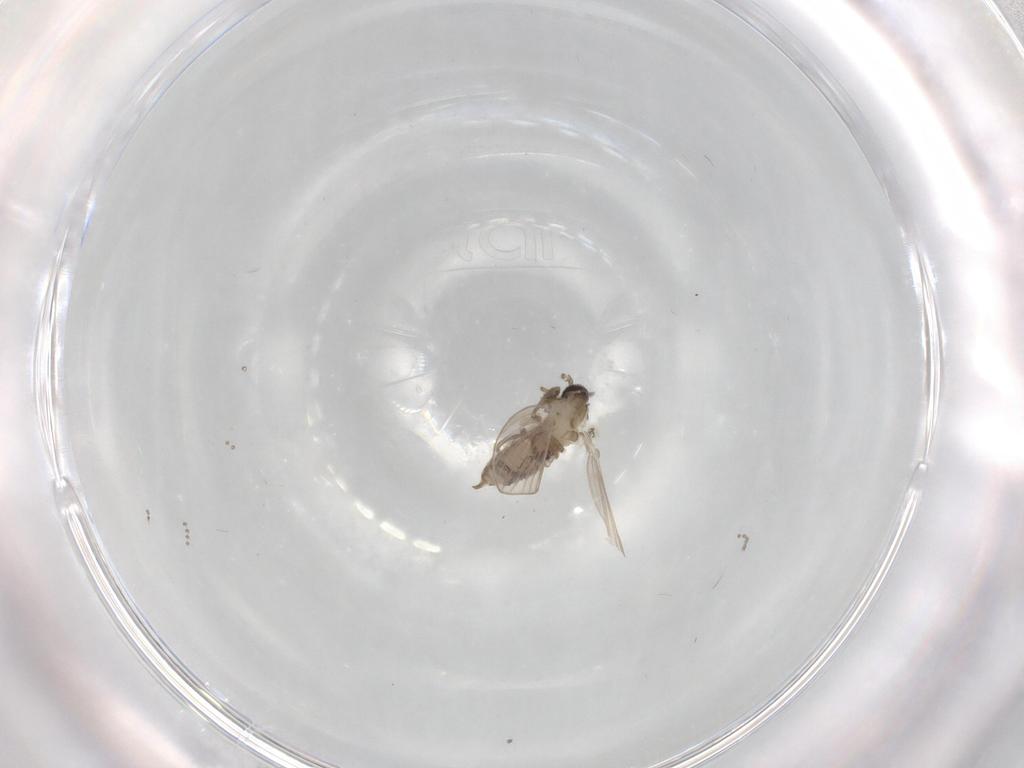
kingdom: Animalia
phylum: Arthropoda
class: Insecta
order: Diptera
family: Psychodidae
